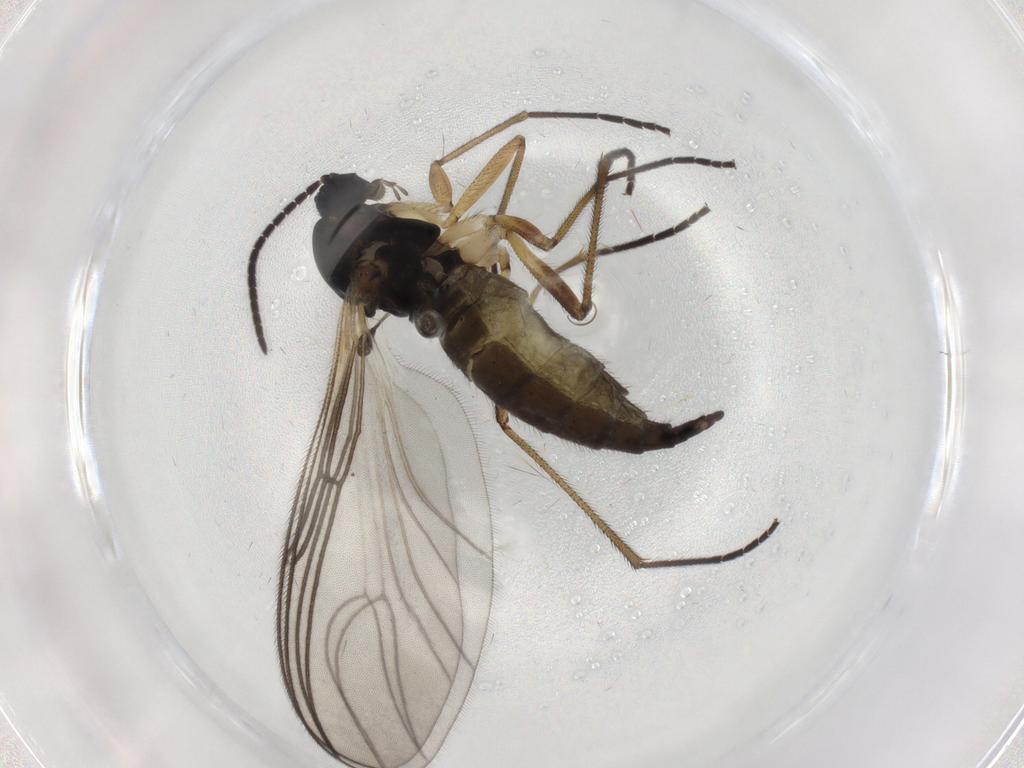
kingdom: Animalia
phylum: Arthropoda
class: Insecta
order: Diptera
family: Sciaridae
